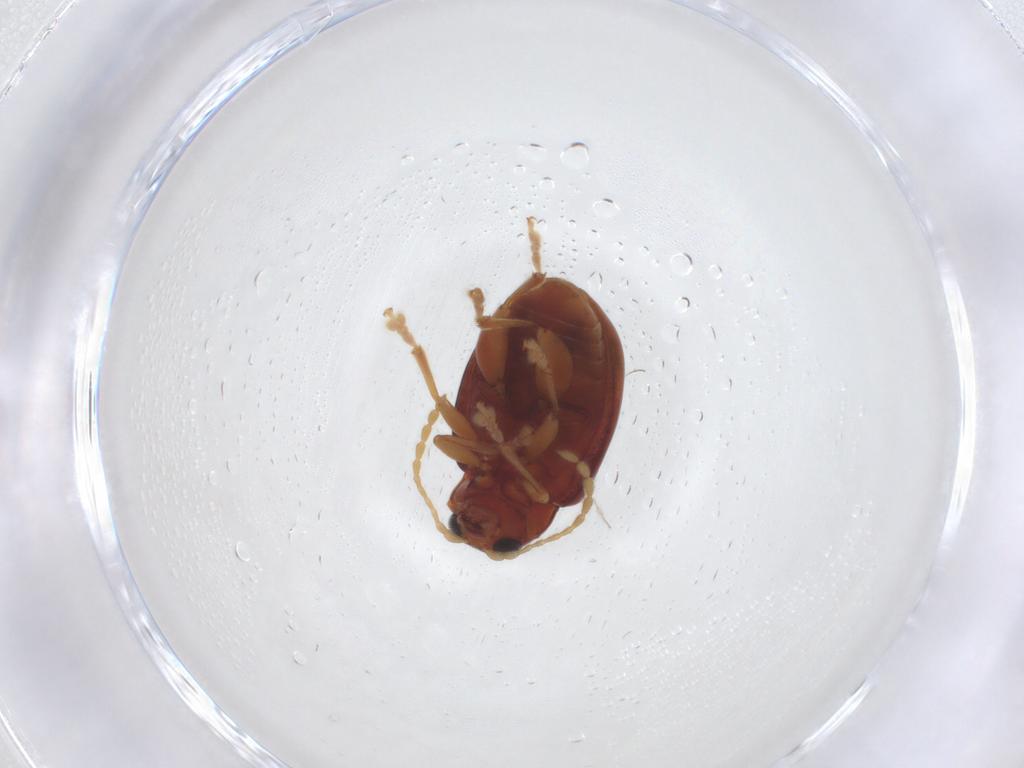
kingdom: Animalia
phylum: Arthropoda
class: Insecta
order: Coleoptera
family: Chrysomelidae
